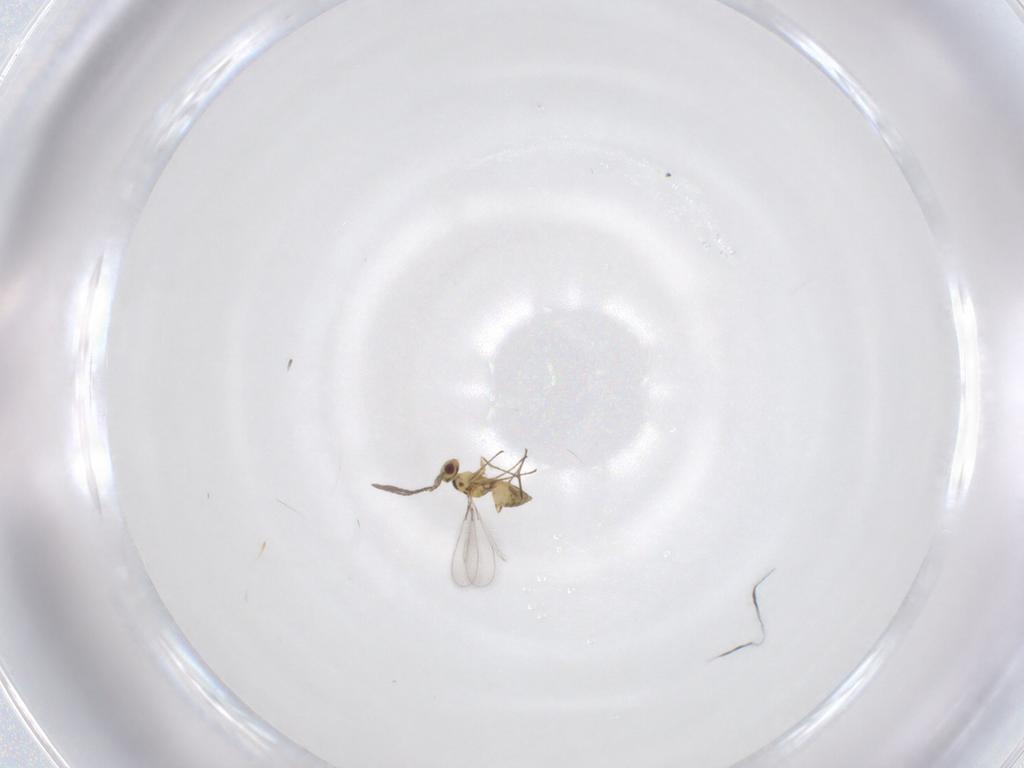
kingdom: Animalia
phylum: Arthropoda
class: Insecta
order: Hymenoptera
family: Mymaridae
